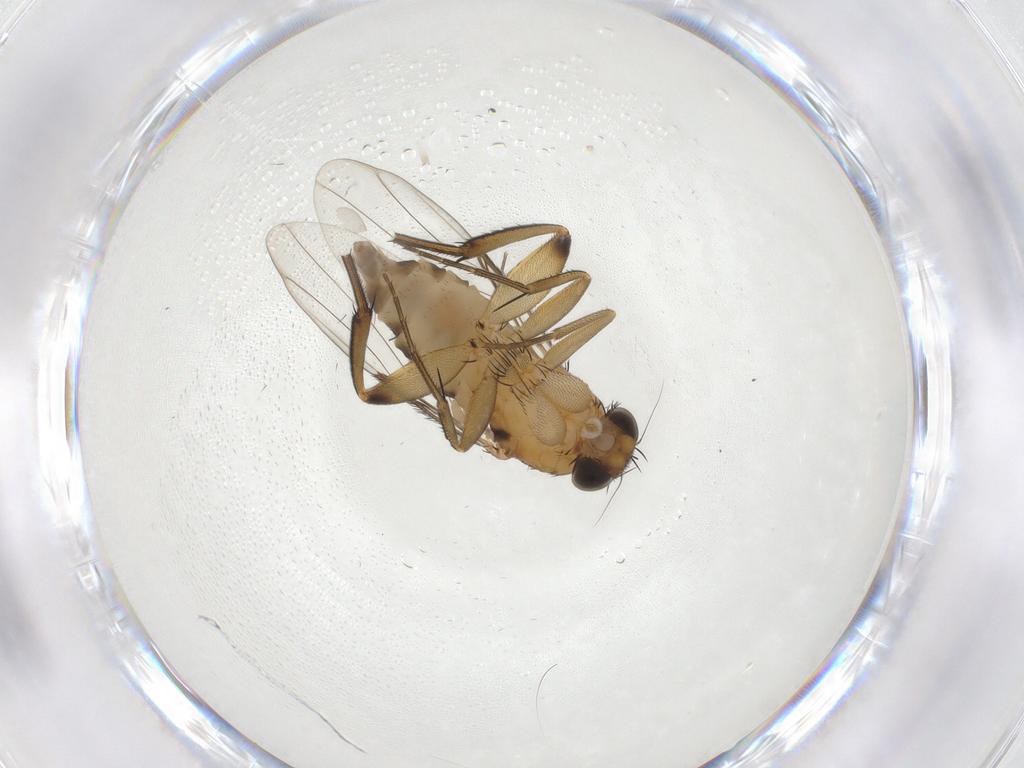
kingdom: Animalia
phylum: Arthropoda
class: Insecta
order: Diptera
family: Phoridae
